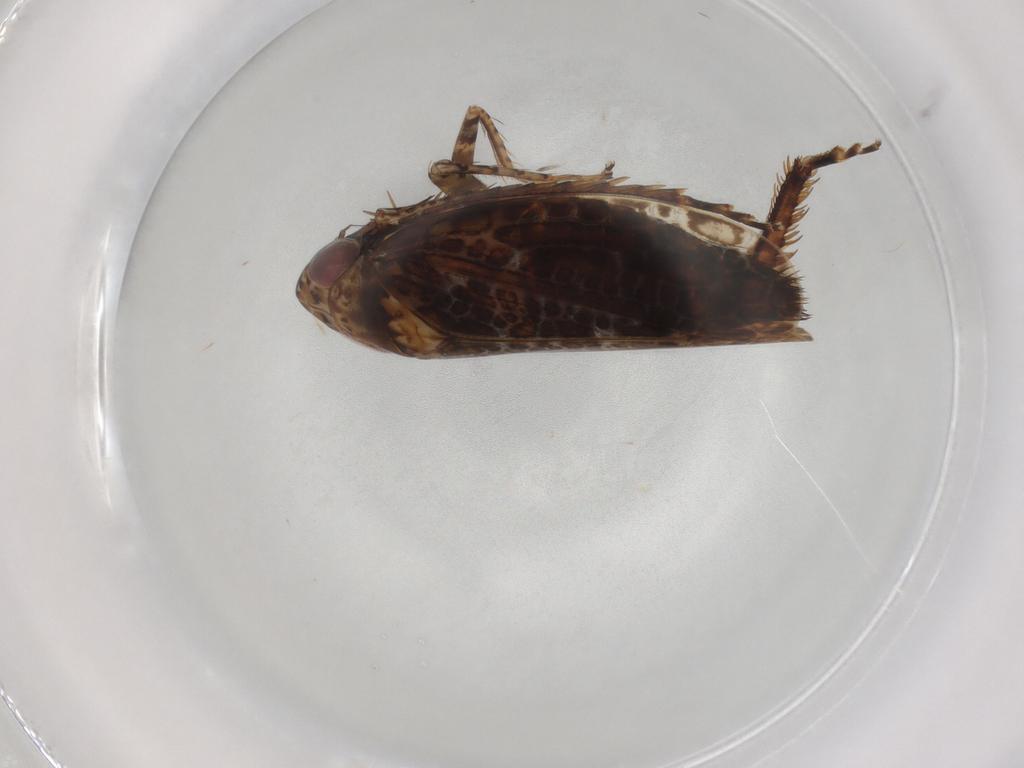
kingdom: Animalia
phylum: Arthropoda
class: Insecta
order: Hemiptera
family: Cicadellidae
